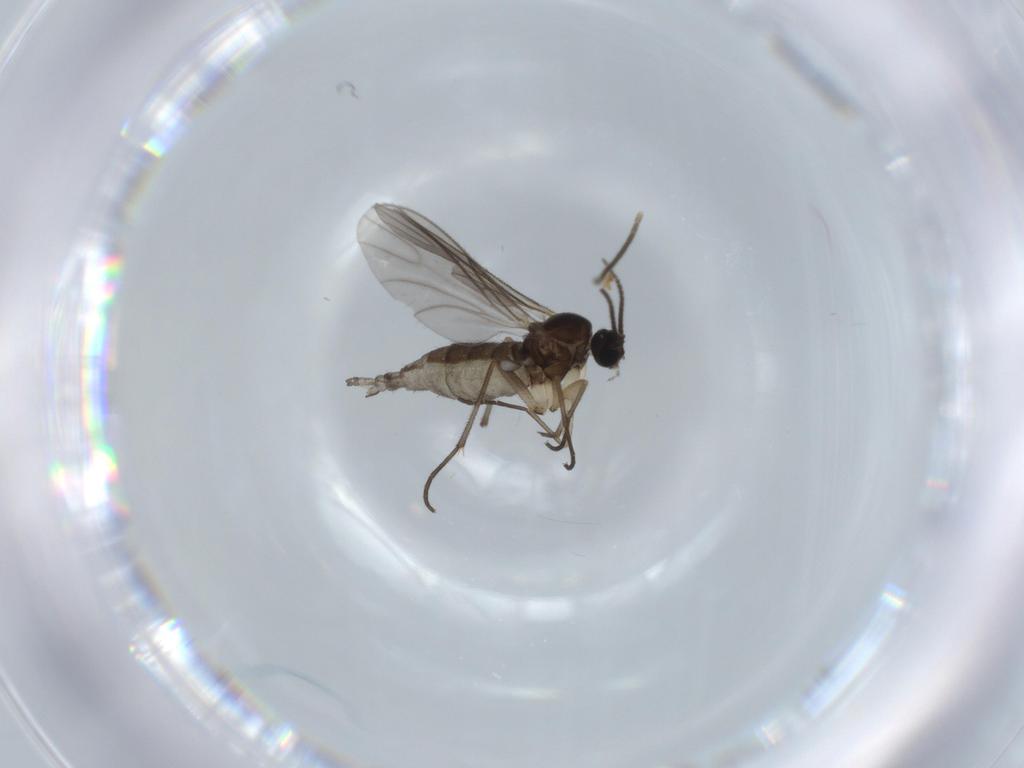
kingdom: Animalia
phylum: Arthropoda
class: Insecta
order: Diptera
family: Sciaridae
